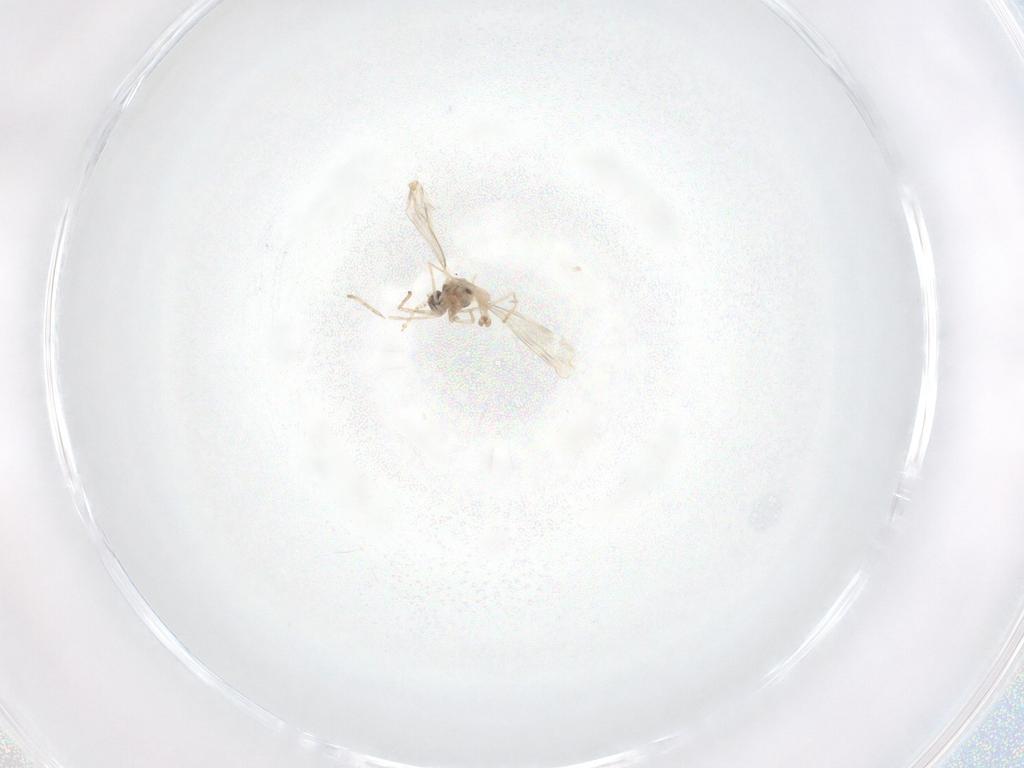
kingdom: Animalia
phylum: Arthropoda
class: Insecta
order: Diptera
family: Cecidomyiidae
